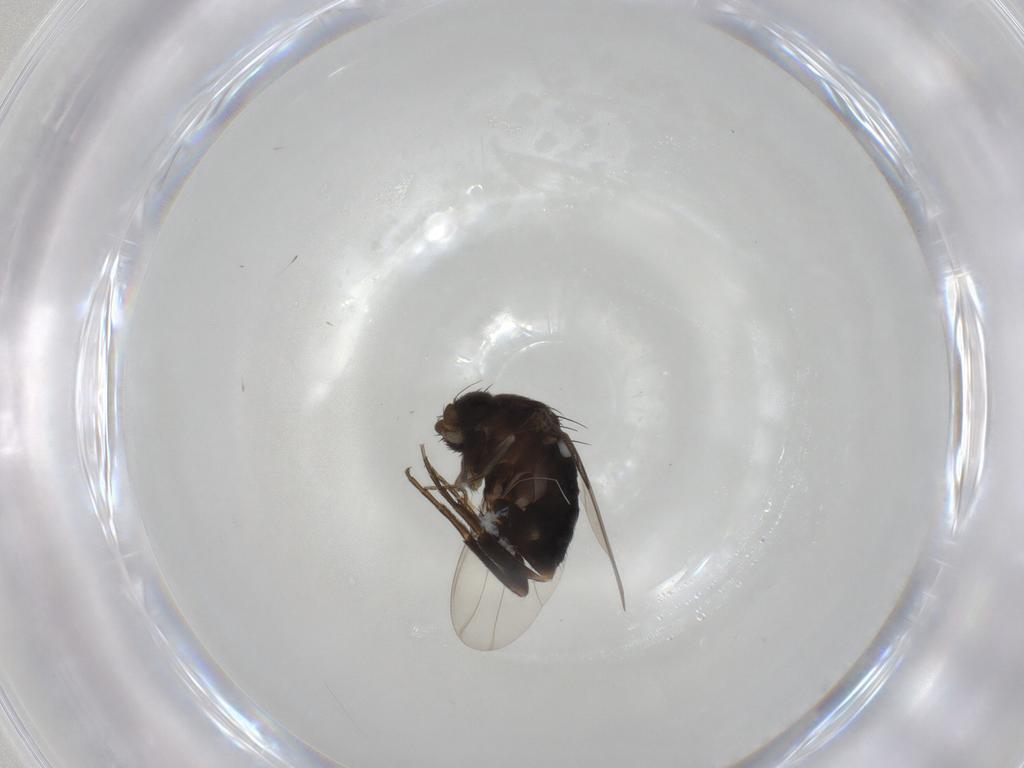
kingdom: Animalia
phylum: Arthropoda
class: Insecta
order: Diptera
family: Phoridae
